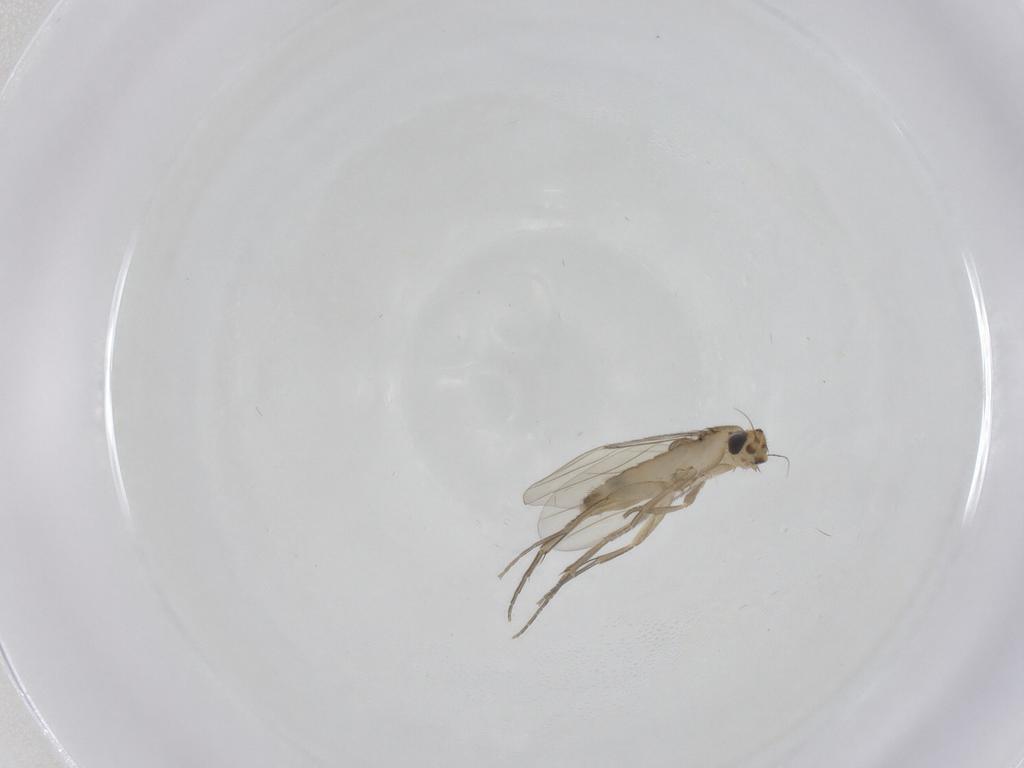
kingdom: Animalia
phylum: Arthropoda
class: Insecta
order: Diptera
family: Phoridae
